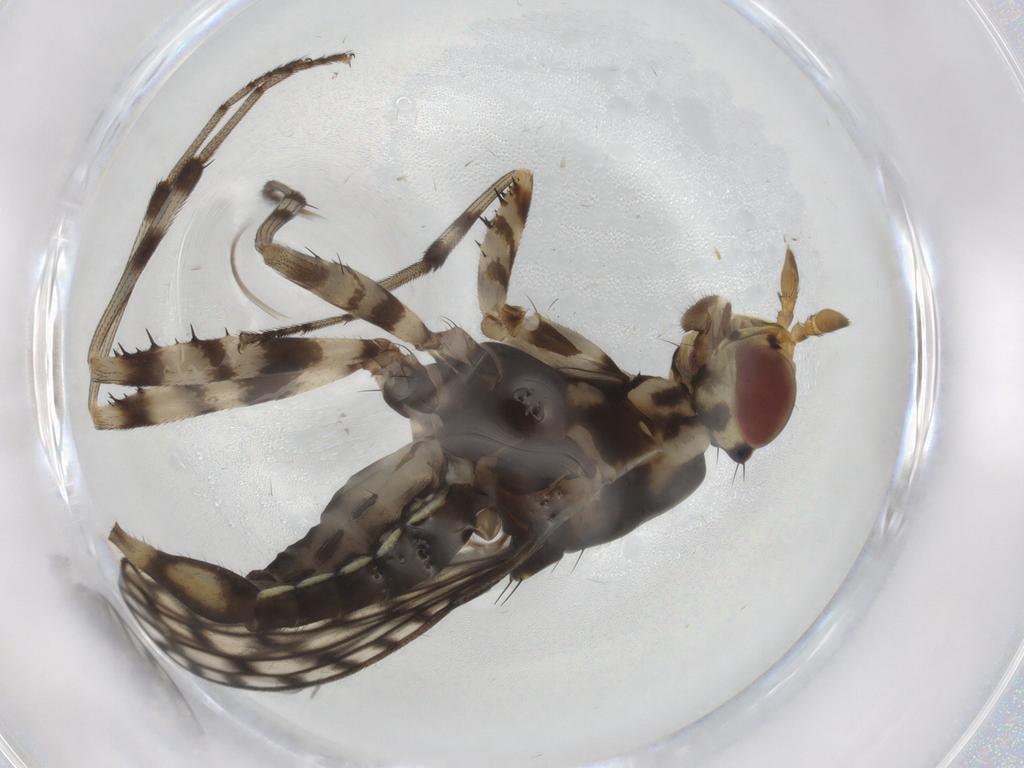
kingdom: Animalia
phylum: Arthropoda
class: Insecta
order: Diptera
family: Neriidae
